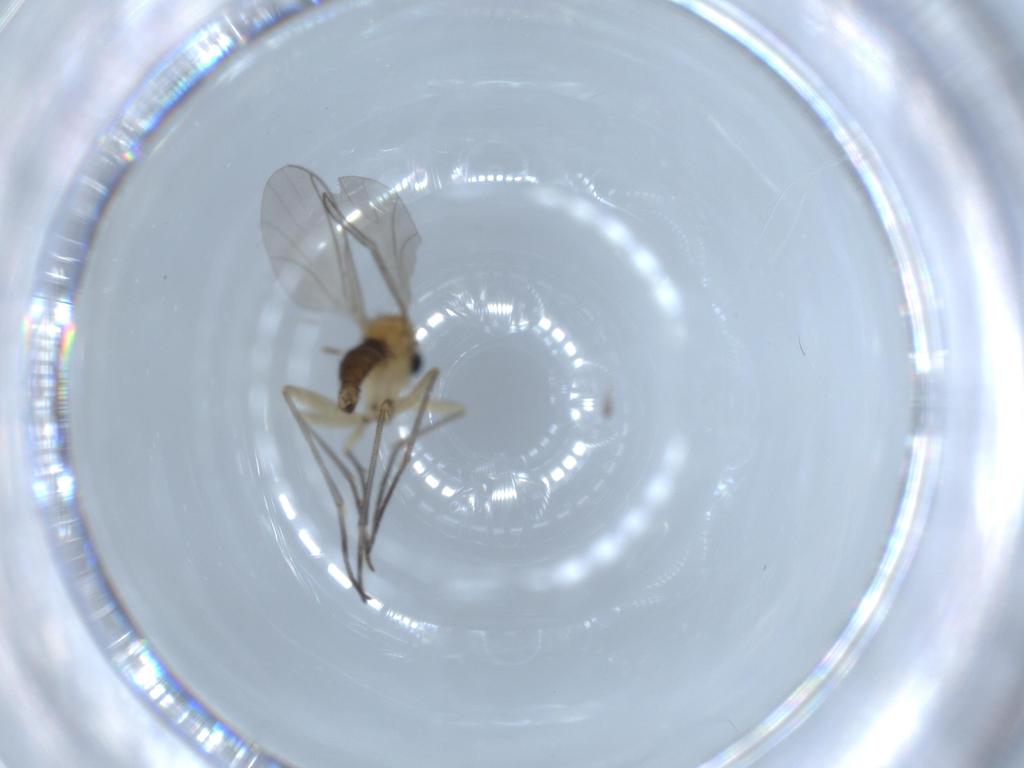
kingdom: Animalia
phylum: Arthropoda
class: Insecta
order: Diptera
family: Sciaridae
